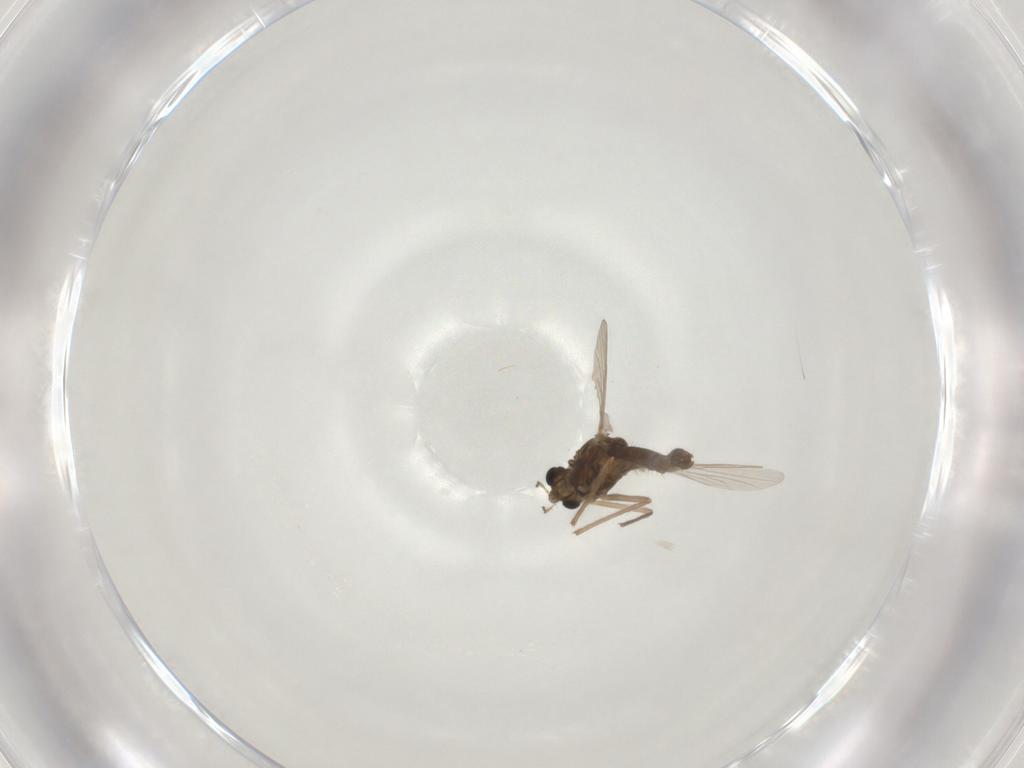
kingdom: Animalia
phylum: Arthropoda
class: Insecta
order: Diptera
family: Chironomidae
